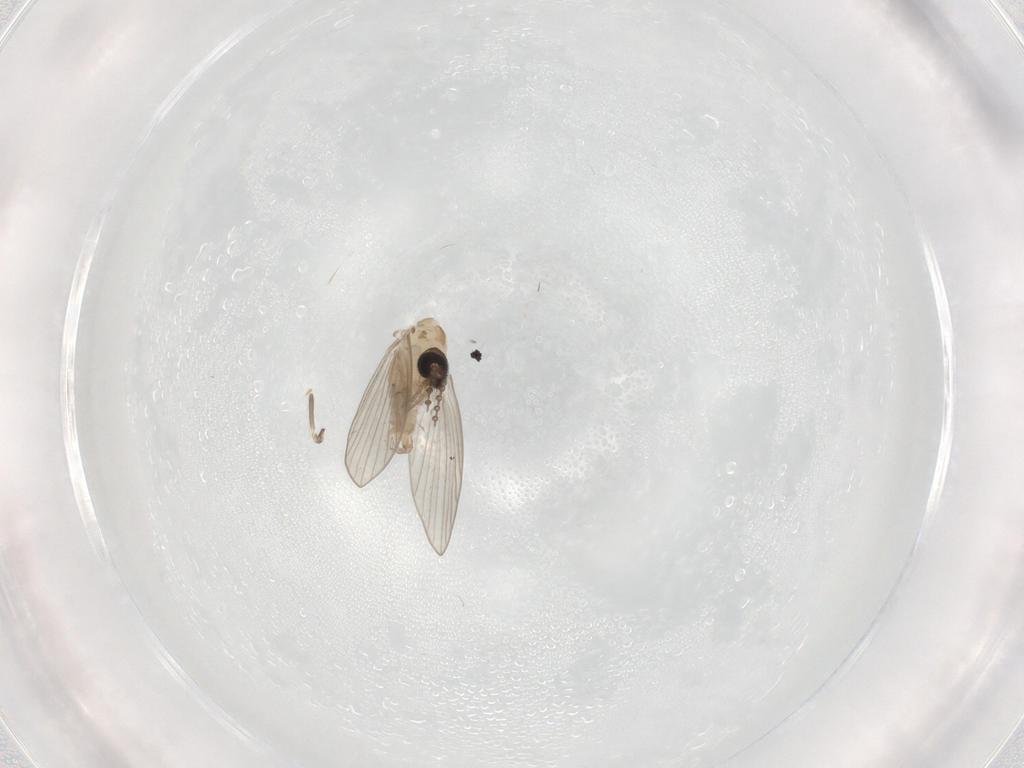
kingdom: Animalia
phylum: Arthropoda
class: Insecta
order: Diptera
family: Psychodidae
